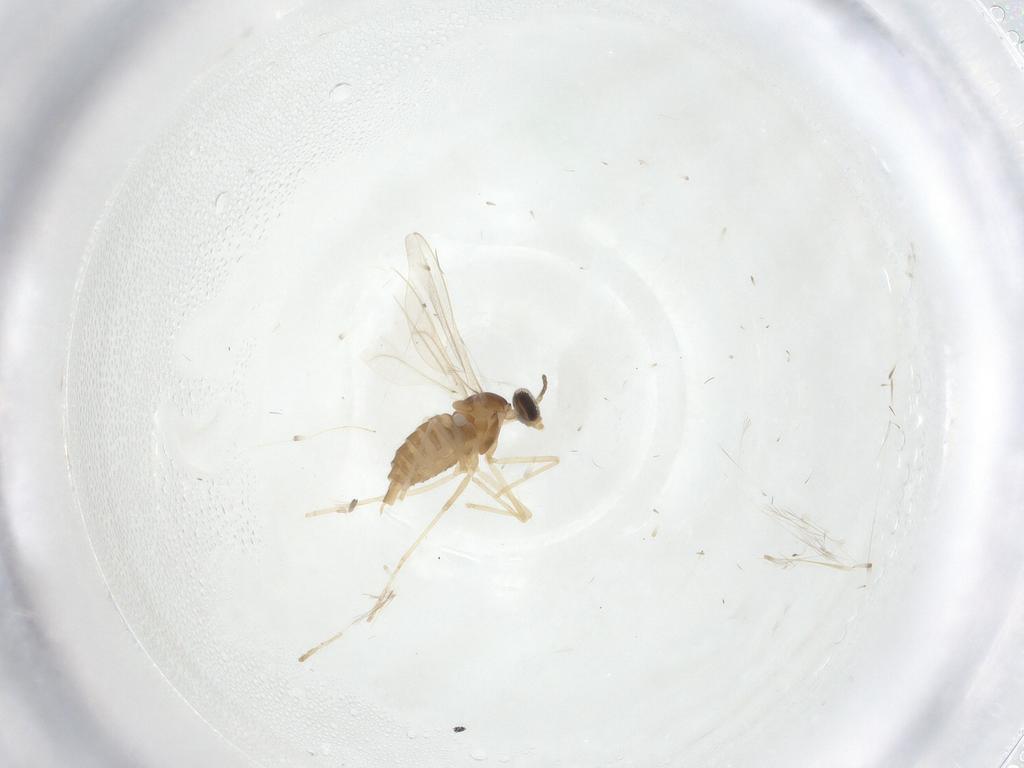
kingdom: Animalia
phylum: Arthropoda
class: Insecta
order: Diptera
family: Cecidomyiidae
